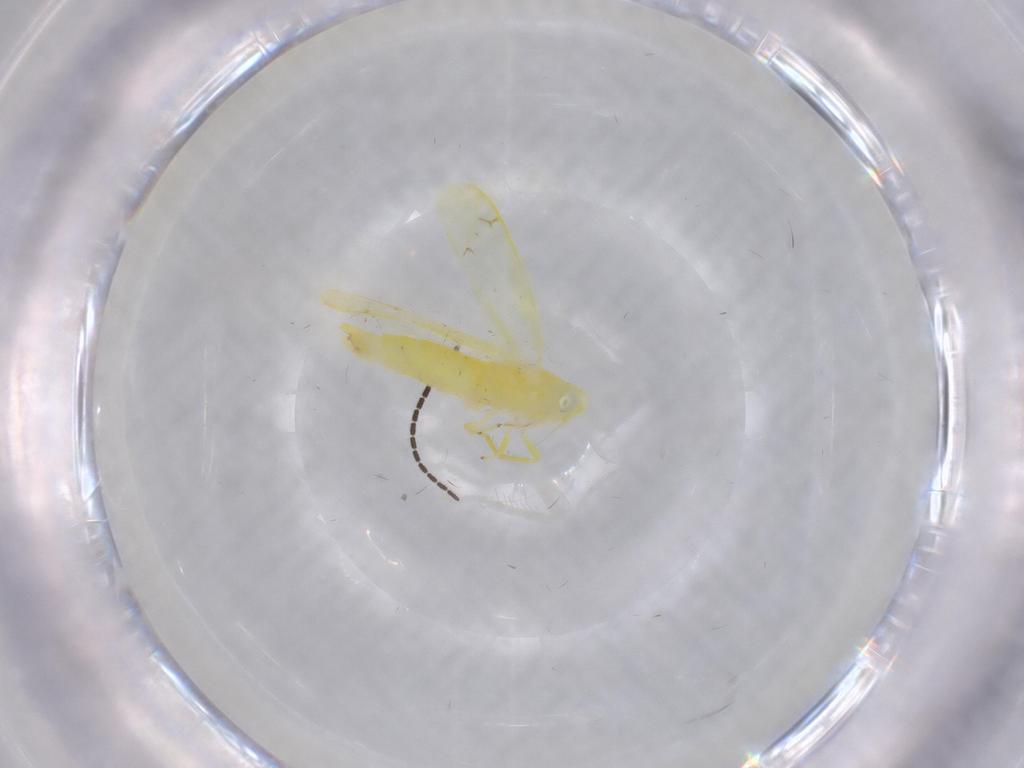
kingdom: Animalia
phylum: Arthropoda
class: Insecta
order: Hemiptera
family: Cicadellidae
